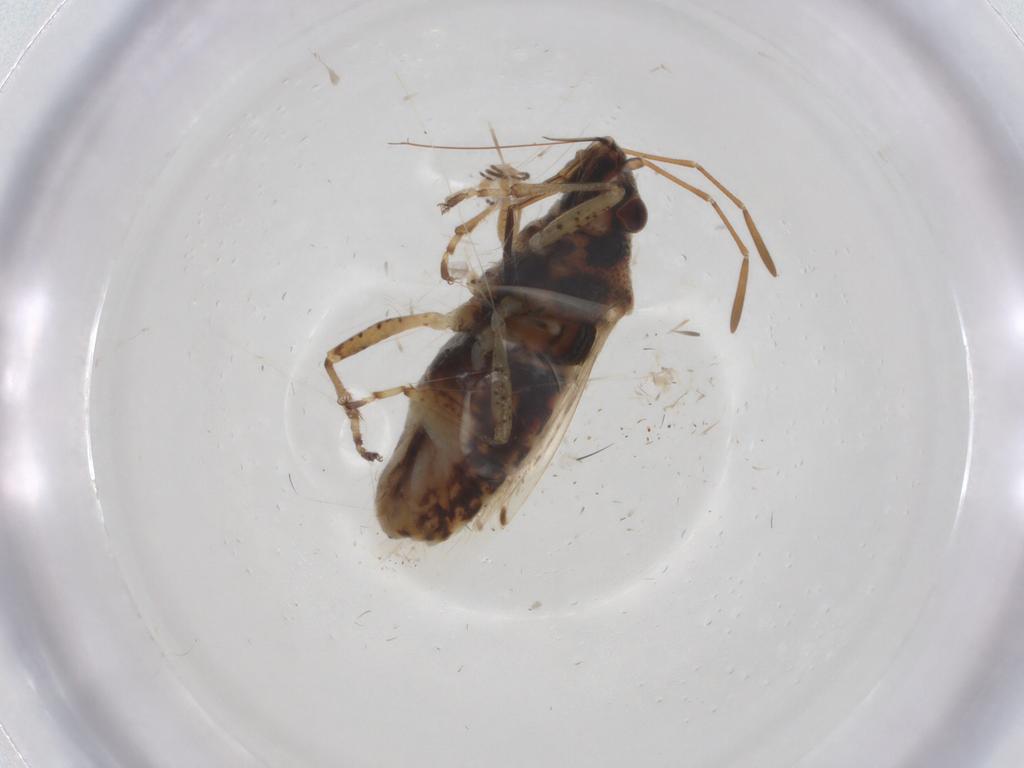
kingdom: Animalia
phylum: Arthropoda
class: Insecta
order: Hemiptera
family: Lygaeidae
